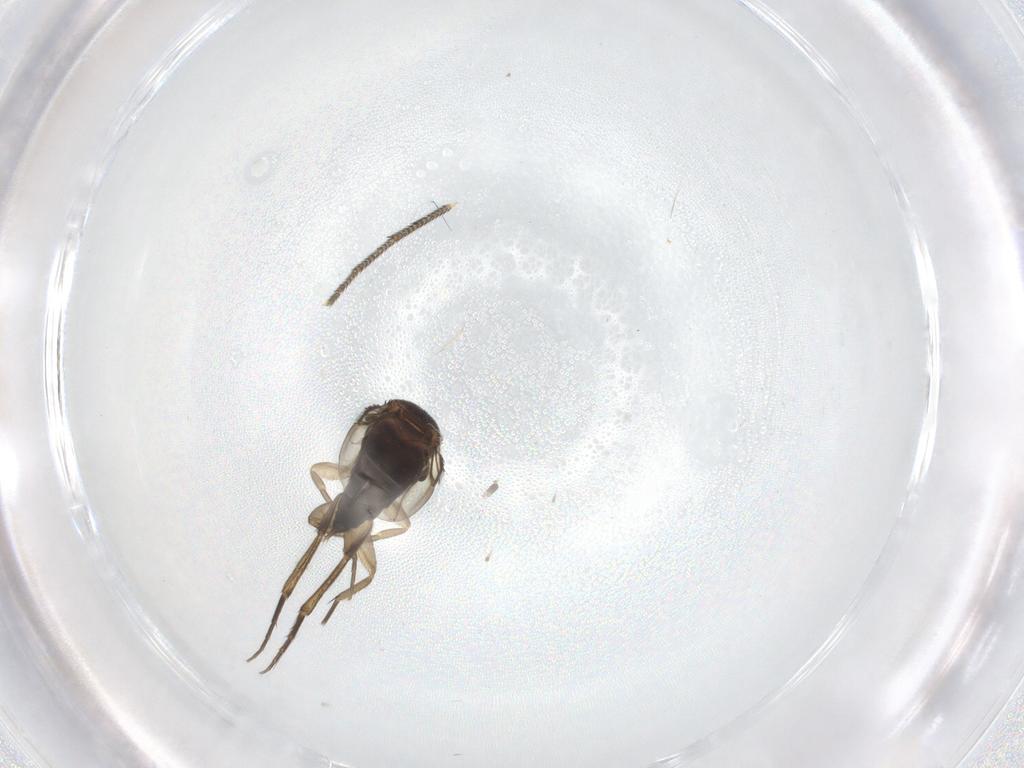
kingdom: Animalia
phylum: Arthropoda
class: Insecta
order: Diptera
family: Phoridae
